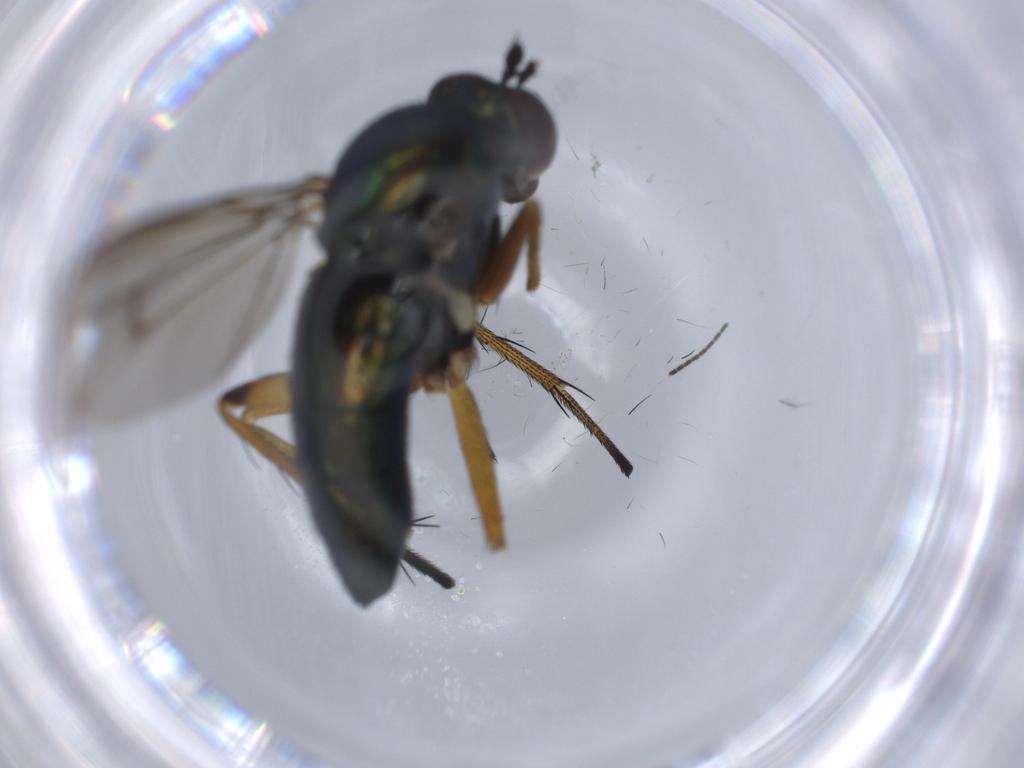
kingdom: Animalia
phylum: Arthropoda
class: Insecta
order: Diptera
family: Dolichopodidae
